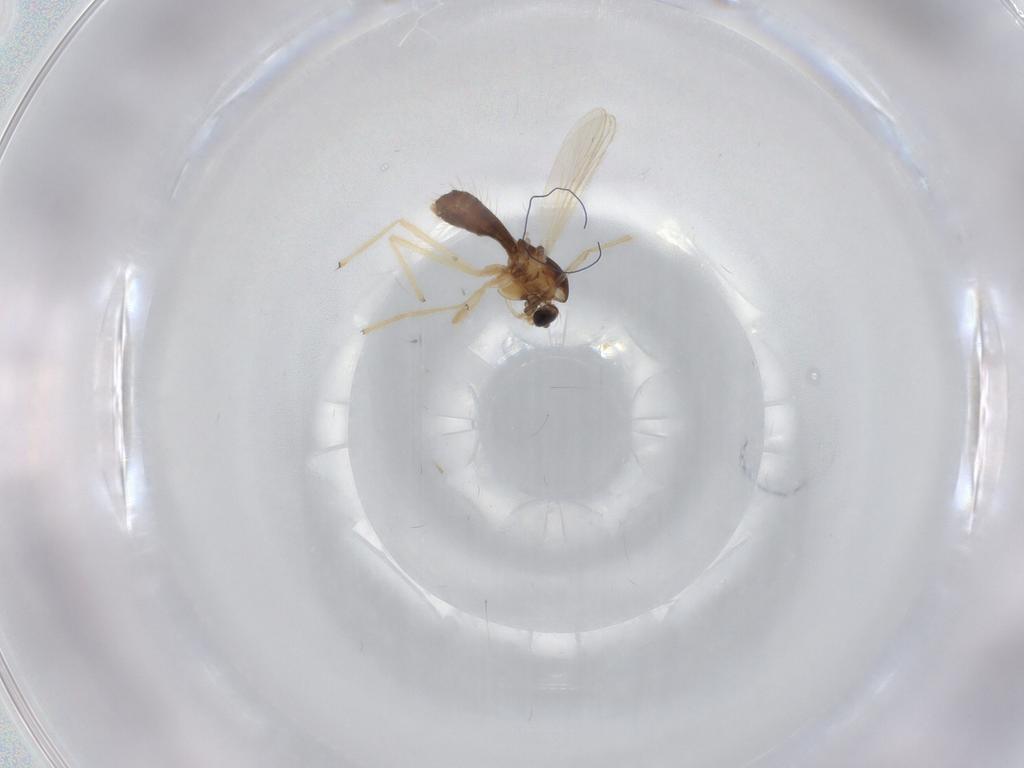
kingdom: Animalia
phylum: Arthropoda
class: Insecta
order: Diptera
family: Chironomidae
